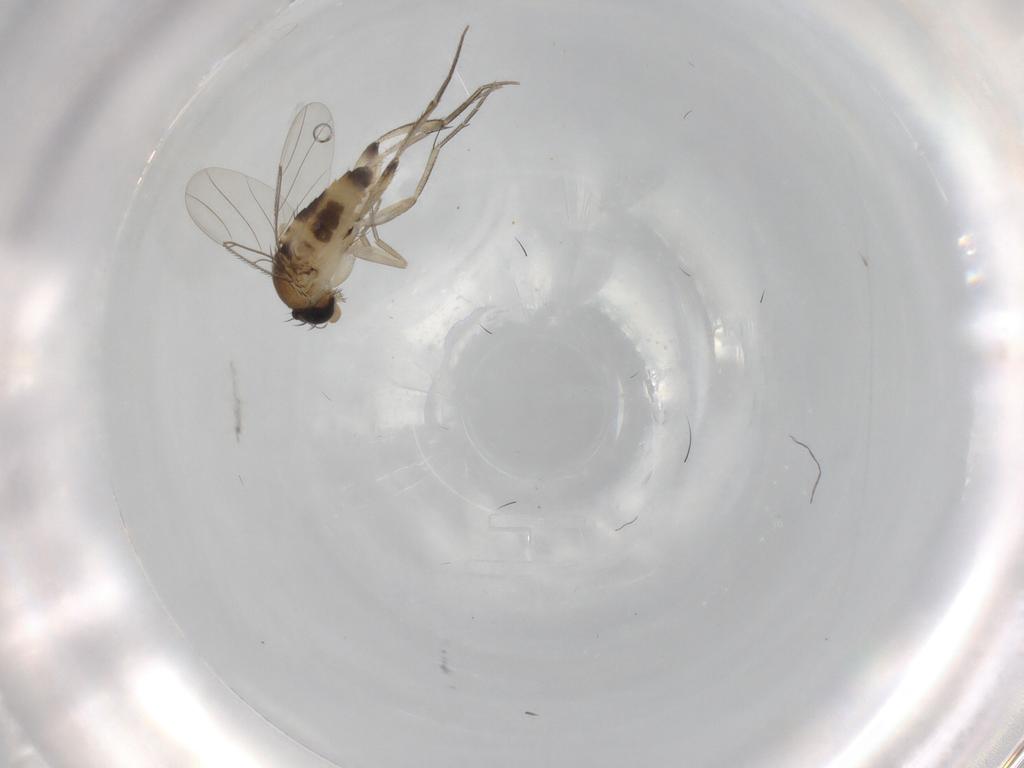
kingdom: Animalia
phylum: Arthropoda
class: Insecta
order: Diptera
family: Phoridae
